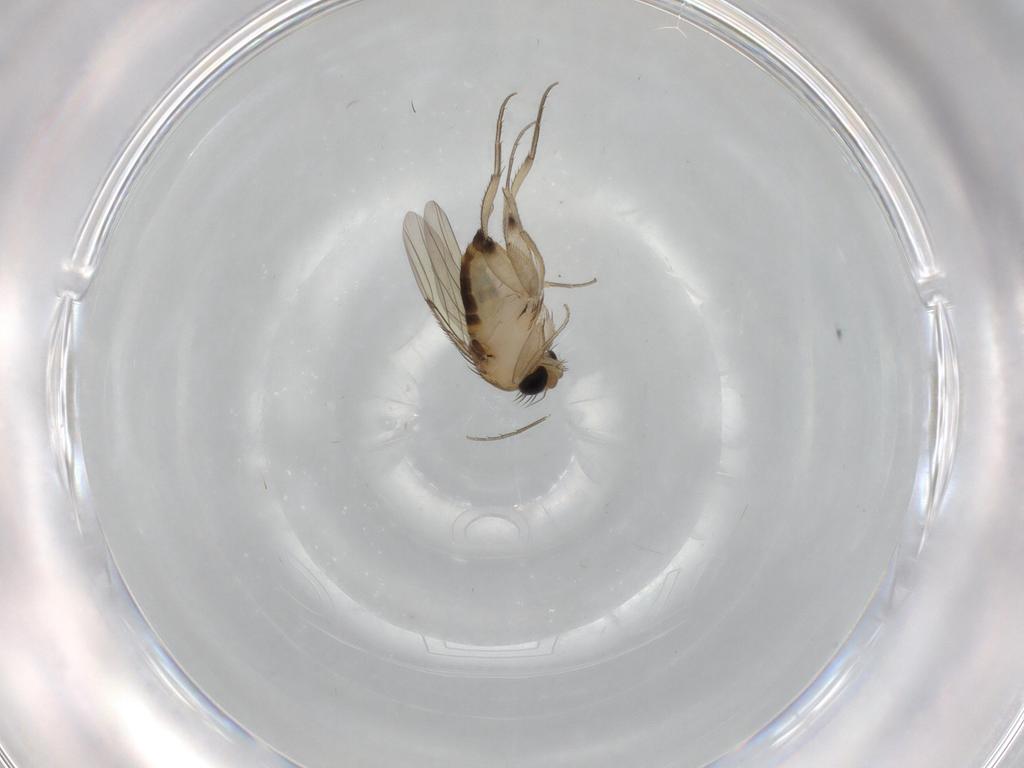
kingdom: Animalia
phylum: Arthropoda
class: Insecta
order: Diptera
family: Phoridae
